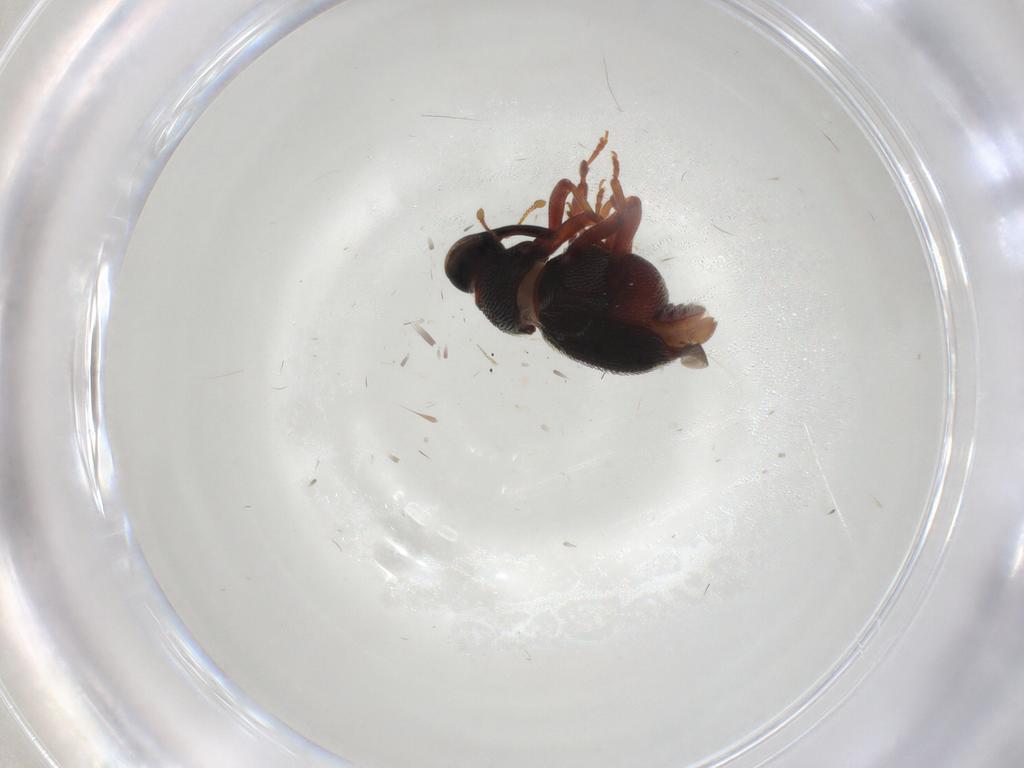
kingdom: Animalia
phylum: Arthropoda
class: Insecta
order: Coleoptera
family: Curculionidae
